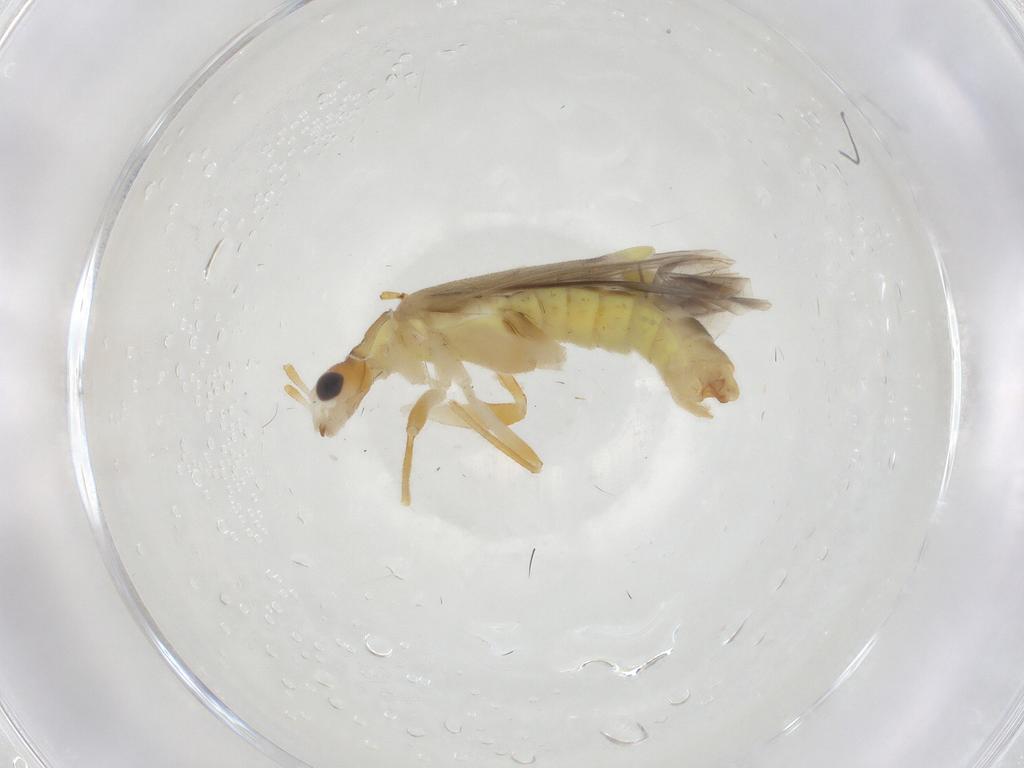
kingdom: Animalia
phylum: Arthropoda
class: Insecta
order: Coleoptera
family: Cantharidae
